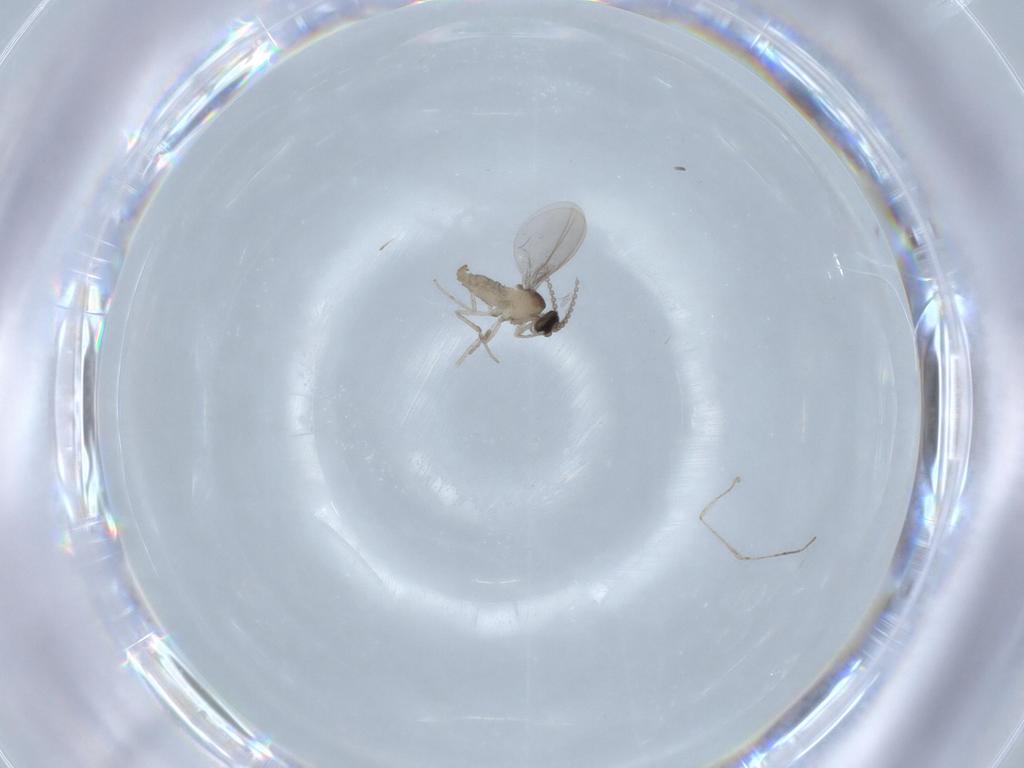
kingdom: Animalia
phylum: Arthropoda
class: Insecta
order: Diptera
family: Cecidomyiidae
